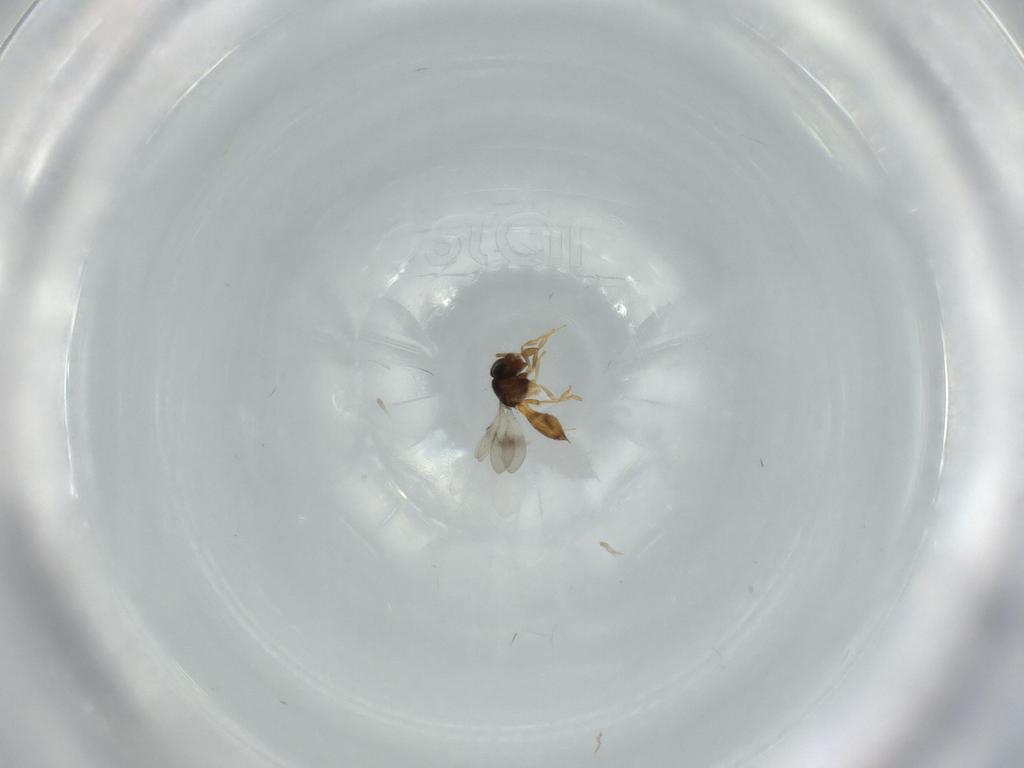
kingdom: Animalia
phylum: Arthropoda
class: Insecta
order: Hymenoptera
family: Scelionidae
